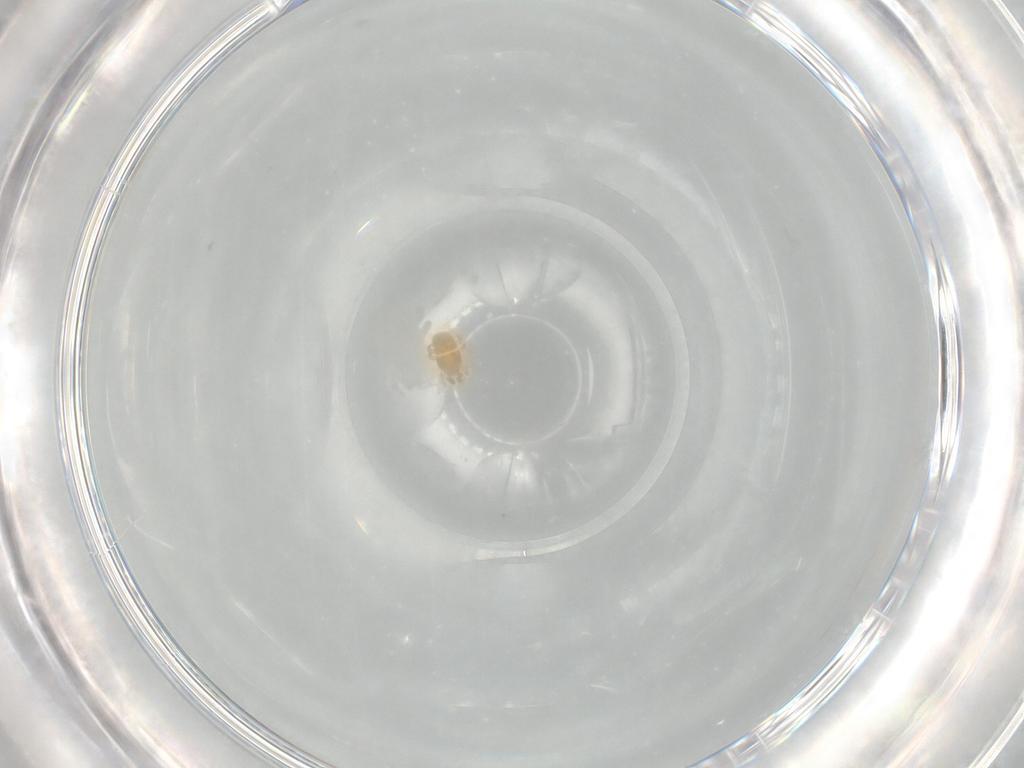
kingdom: Animalia
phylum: Arthropoda
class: Arachnida
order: Mesostigmata
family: Digamasellidae
